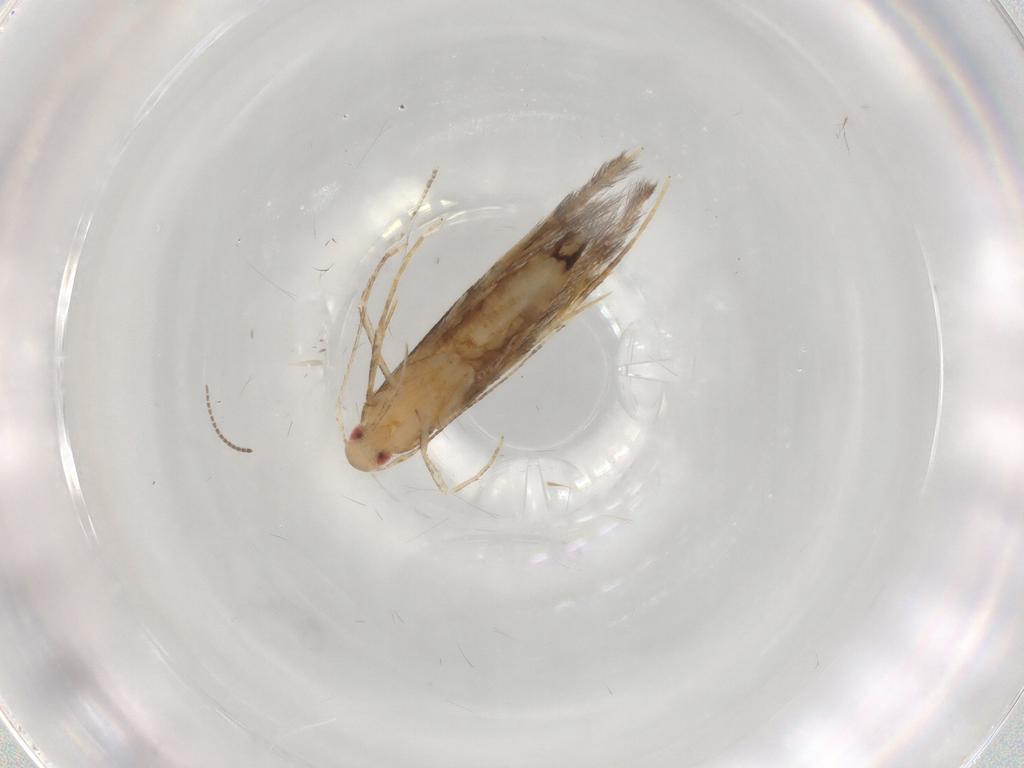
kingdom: Animalia
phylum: Arthropoda
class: Insecta
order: Lepidoptera
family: Cosmopterigidae
